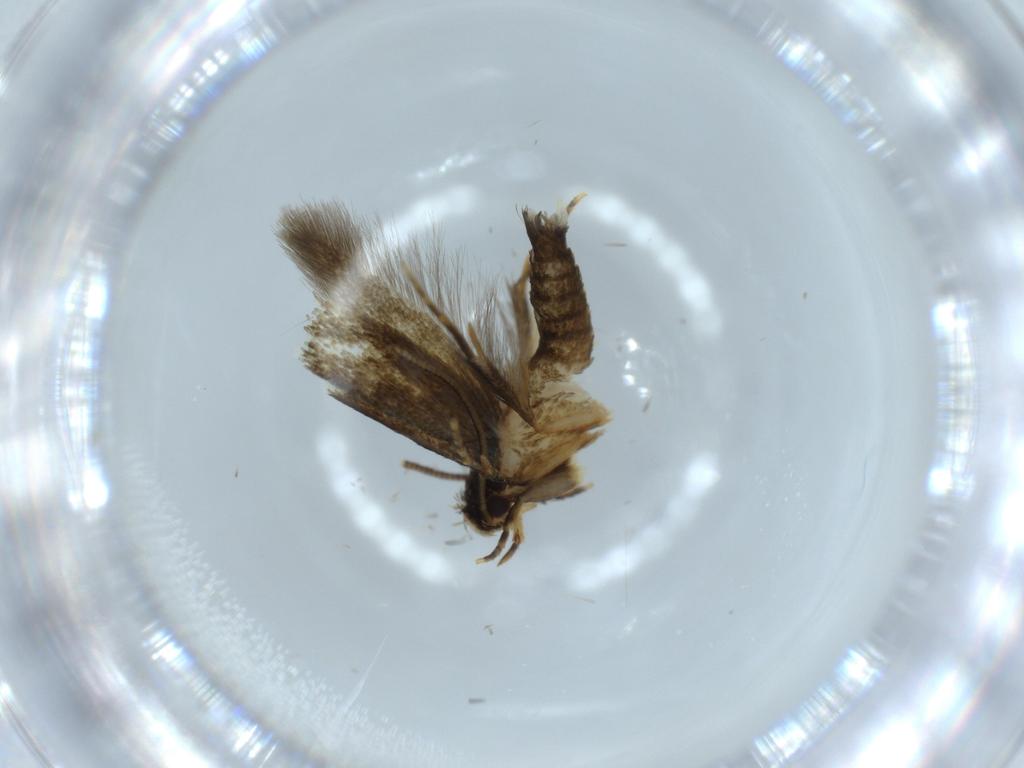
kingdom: Animalia
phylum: Arthropoda
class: Insecta
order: Lepidoptera
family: Tineidae
